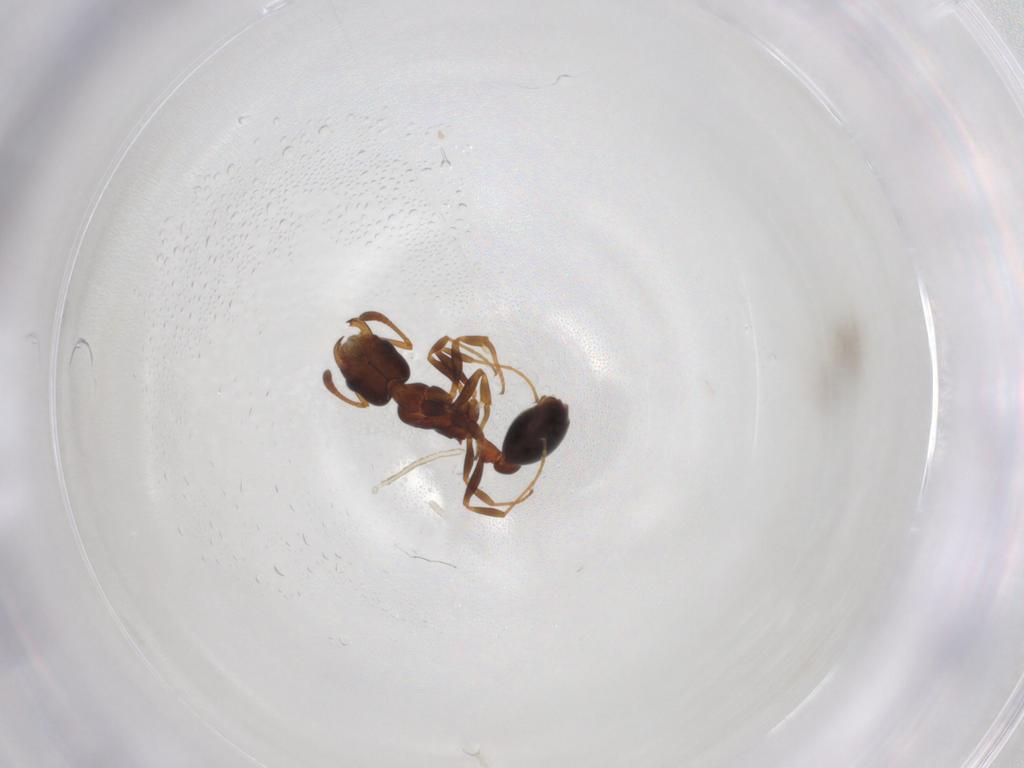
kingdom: Animalia
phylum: Arthropoda
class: Insecta
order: Hymenoptera
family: Formicidae
